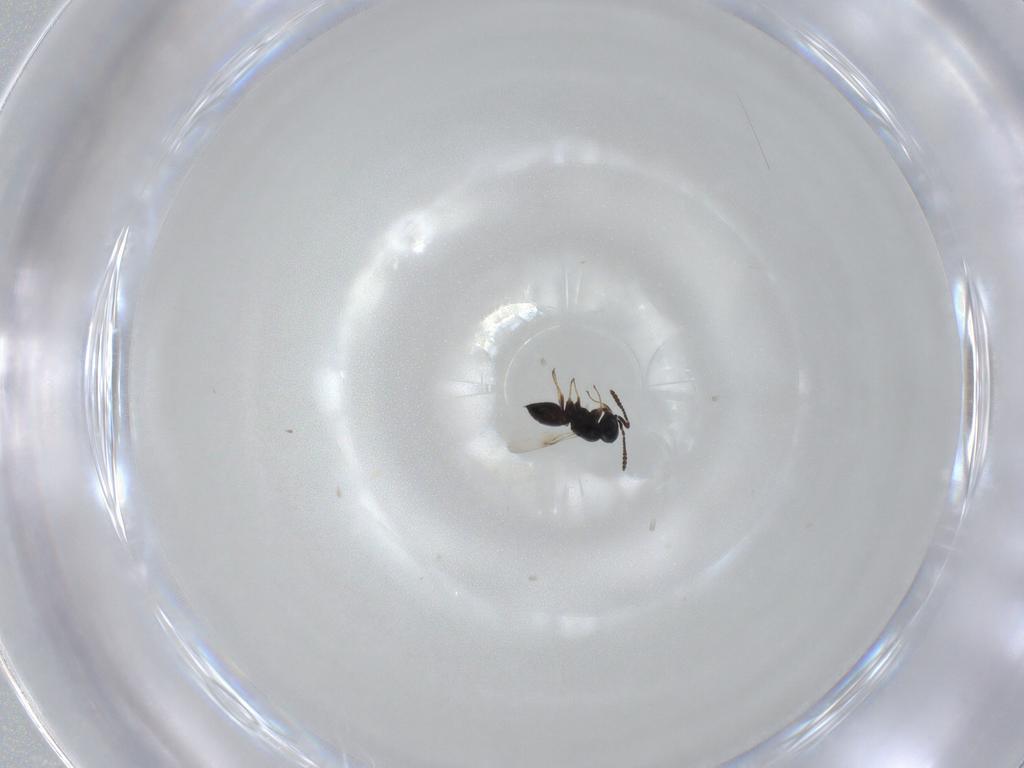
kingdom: Animalia
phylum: Arthropoda
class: Insecta
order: Hymenoptera
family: Scelionidae
